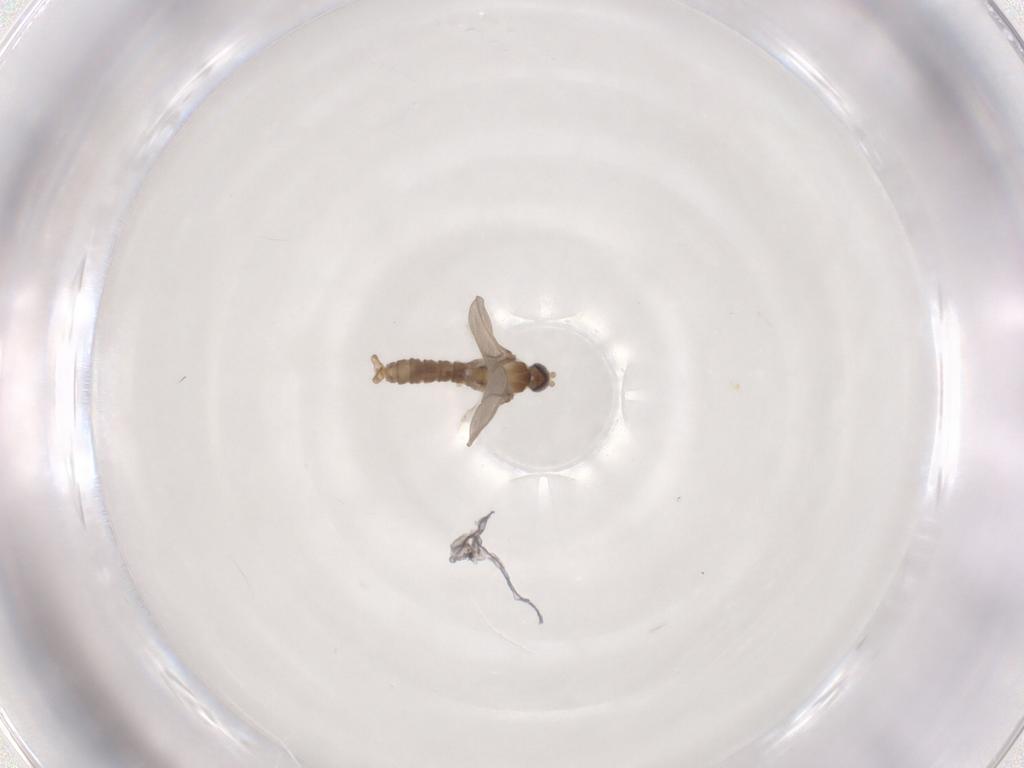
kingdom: Animalia
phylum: Arthropoda
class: Insecta
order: Diptera
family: Cecidomyiidae
